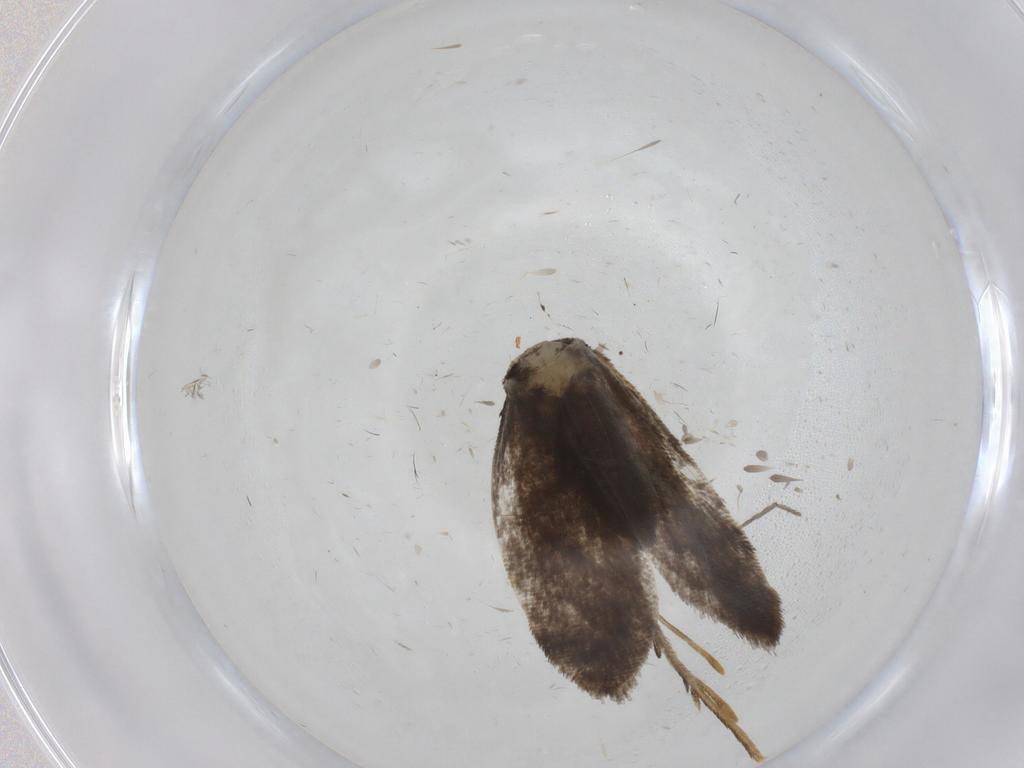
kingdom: Animalia
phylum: Arthropoda
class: Insecta
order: Lepidoptera
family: Psychidae
